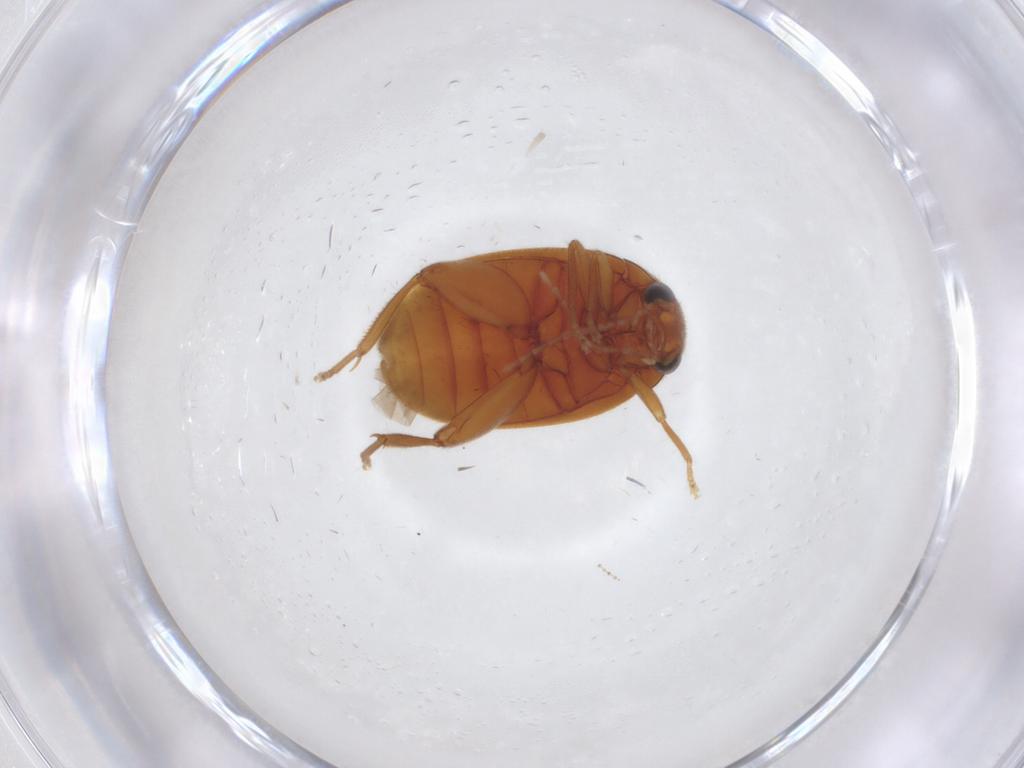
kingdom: Animalia
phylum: Arthropoda
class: Insecta
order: Coleoptera
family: Scirtidae
